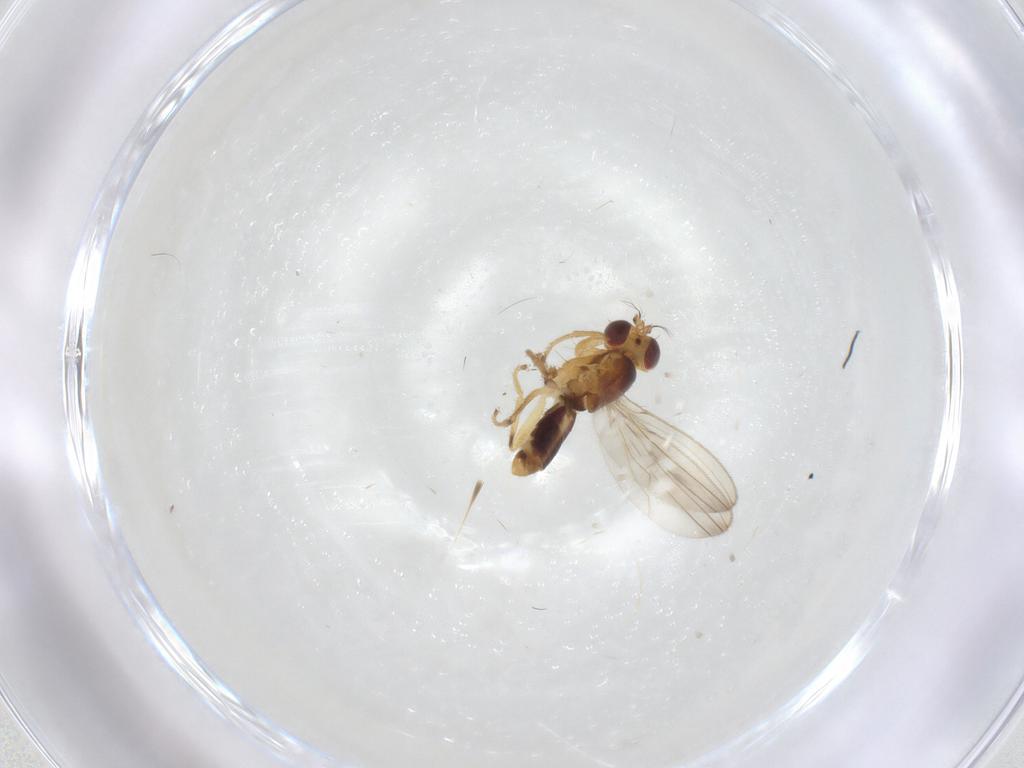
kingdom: Animalia
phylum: Arthropoda
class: Insecta
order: Diptera
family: Periscelididae
